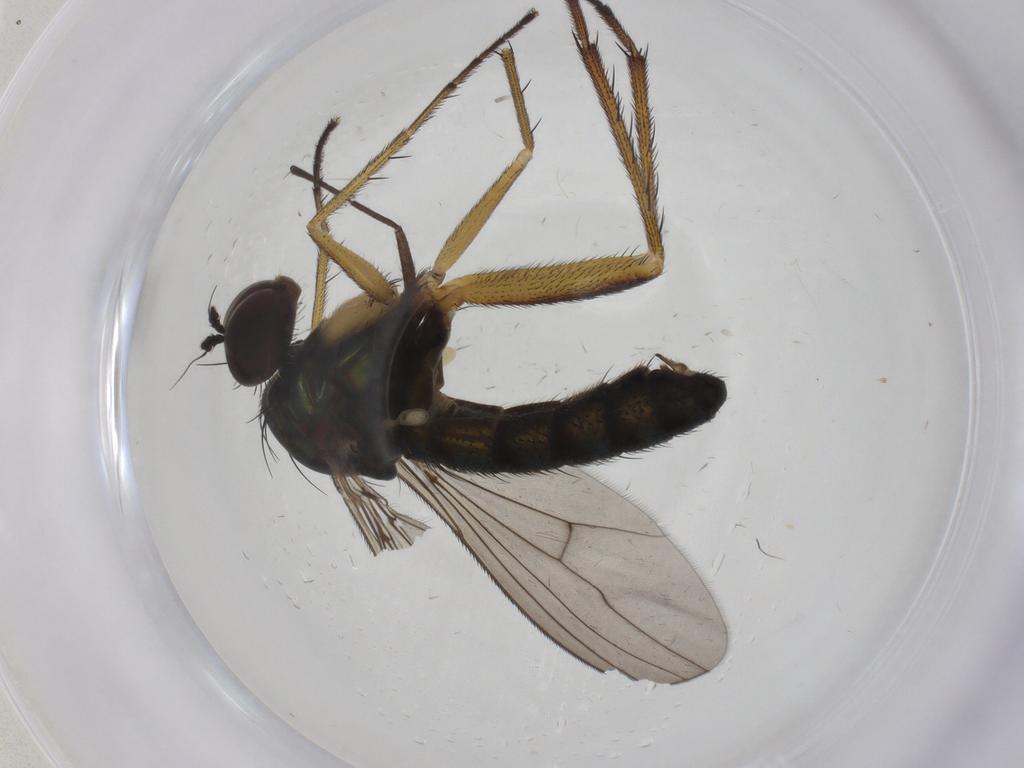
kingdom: Animalia
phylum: Arthropoda
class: Insecta
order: Diptera
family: Dolichopodidae
